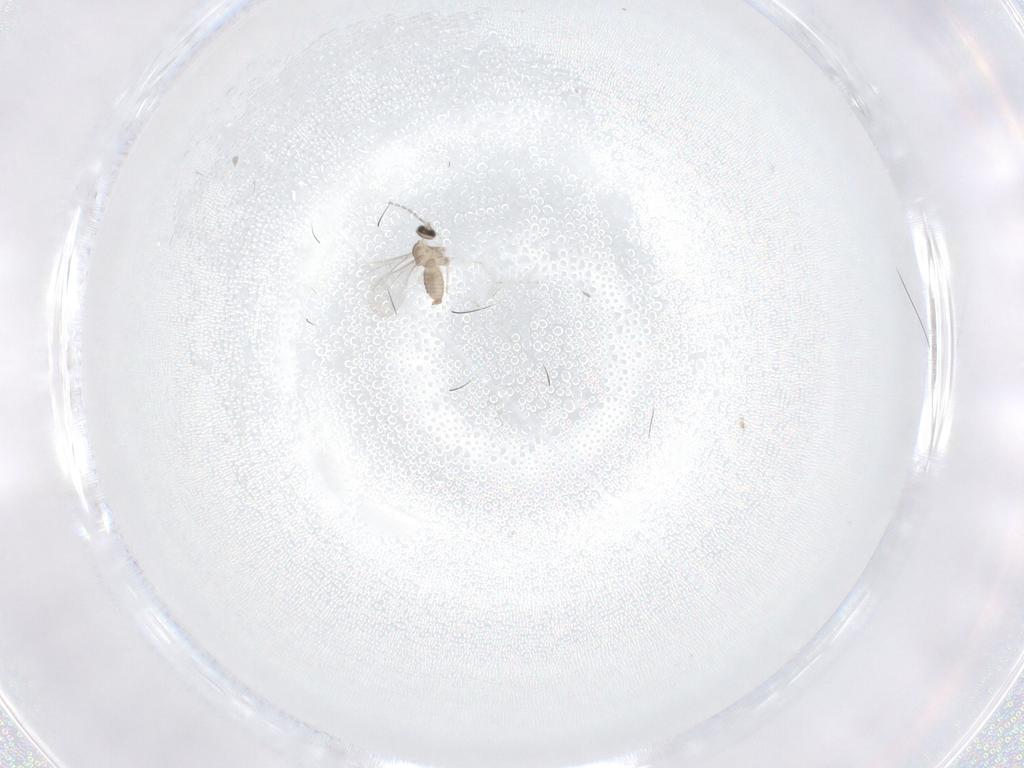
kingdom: Animalia
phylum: Arthropoda
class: Insecta
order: Diptera
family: Cecidomyiidae
